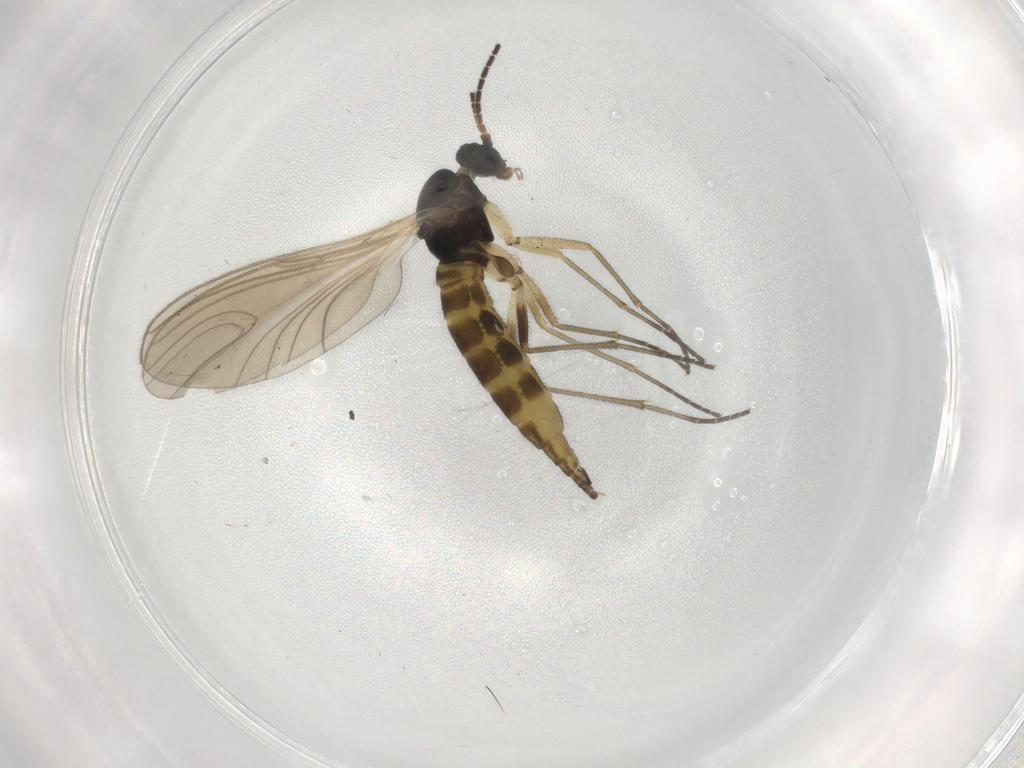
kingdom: Animalia
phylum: Arthropoda
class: Insecta
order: Diptera
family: Sciaridae
